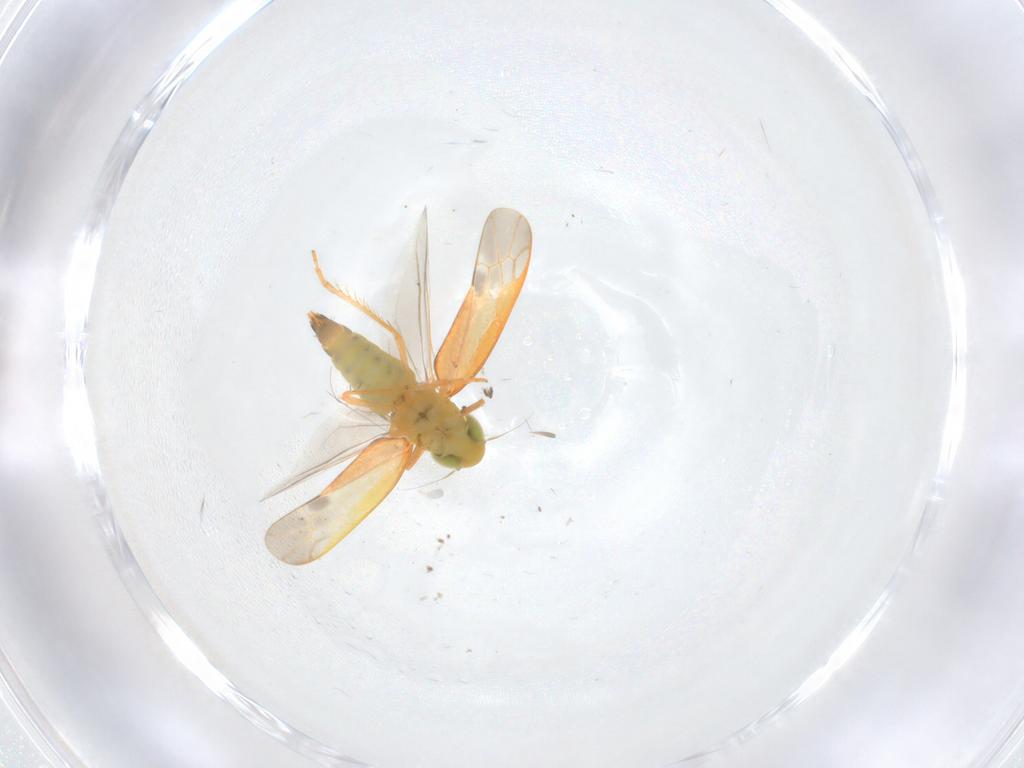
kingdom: Animalia
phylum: Arthropoda
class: Insecta
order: Hemiptera
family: Cicadellidae
